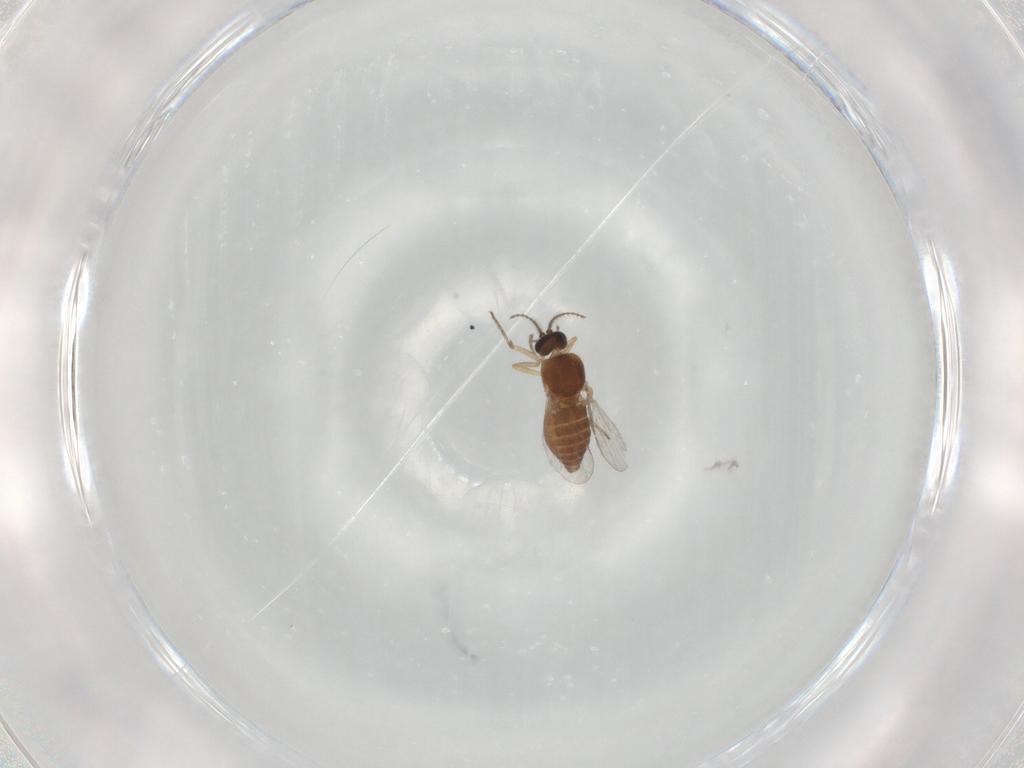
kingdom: Animalia
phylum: Arthropoda
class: Insecta
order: Diptera
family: Ceratopogonidae
